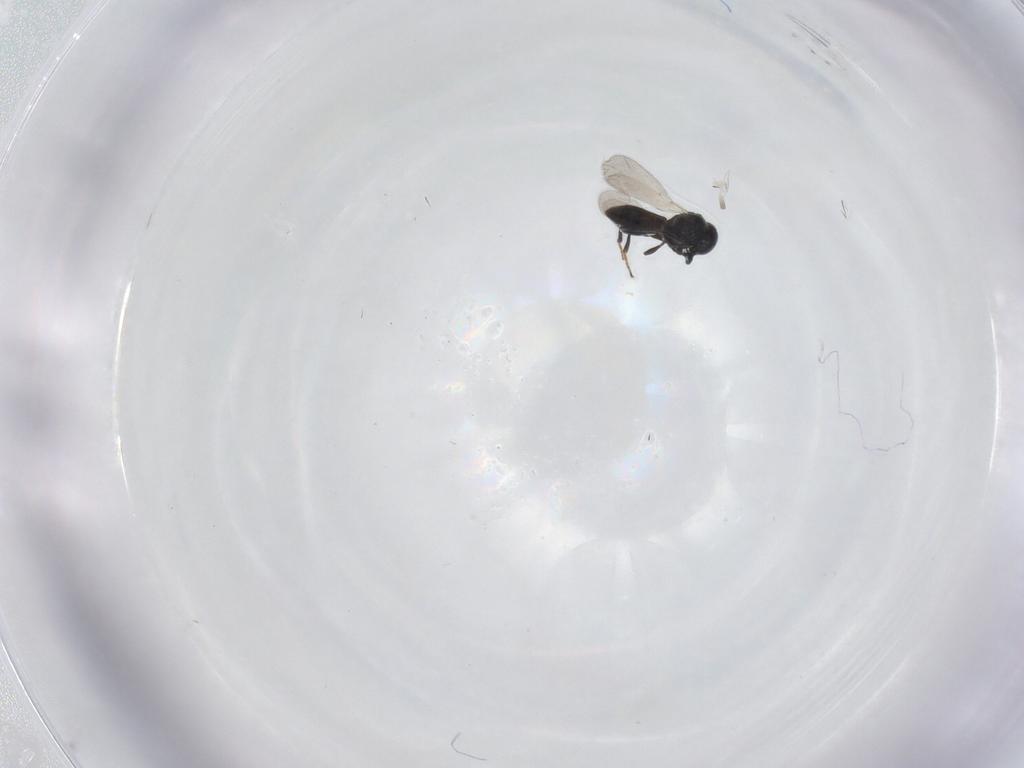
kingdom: Animalia
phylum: Arthropoda
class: Insecta
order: Hymenoptera
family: Platygastridae
